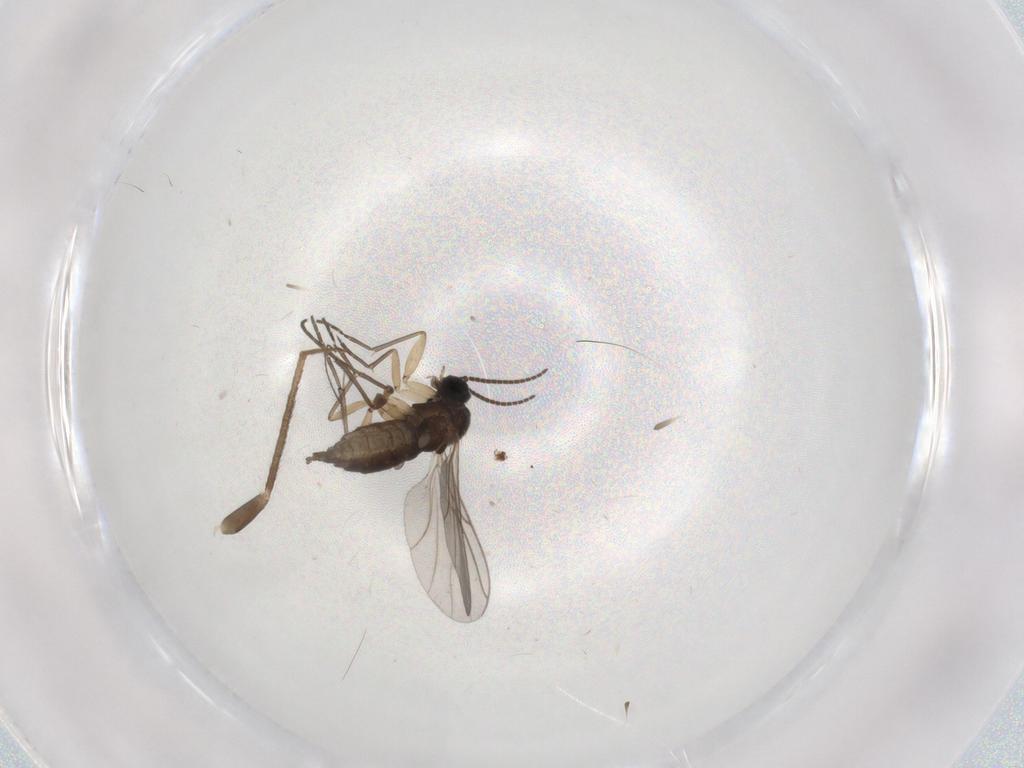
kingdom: Animalia
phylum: Arthropoda
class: Insecta
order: Diptera
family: Sciaridae
